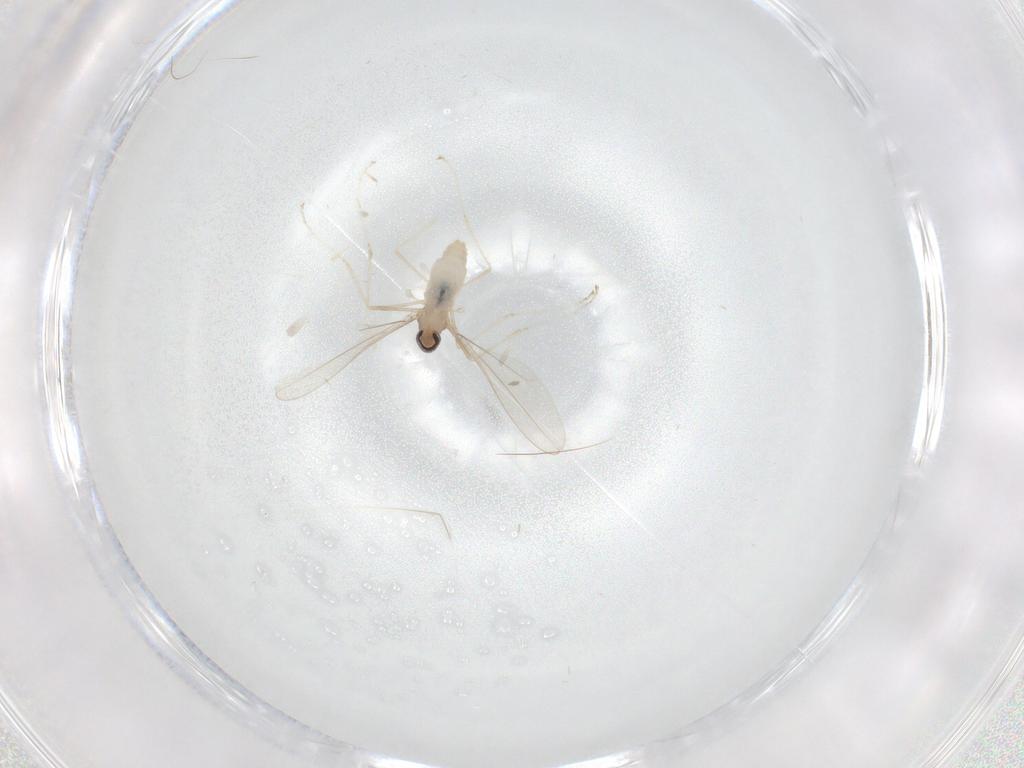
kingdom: Animalia
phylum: Arthropoda
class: Insecta
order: Diptera
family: Cecidomyiidae
